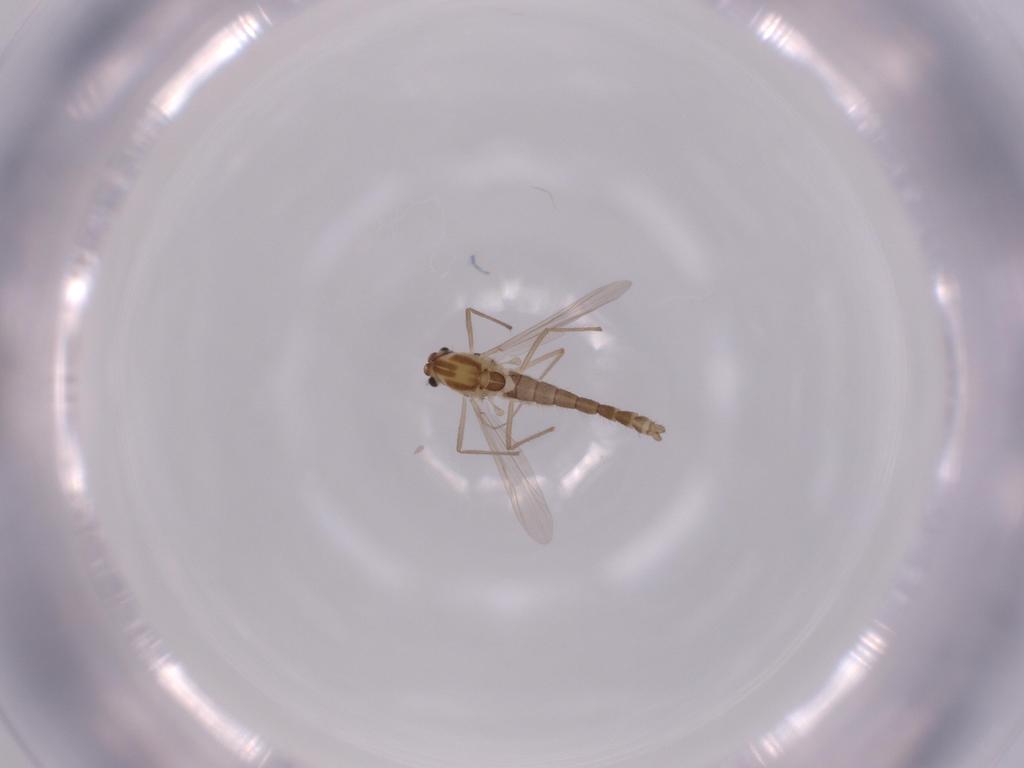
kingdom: Animalia
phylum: Arthropoda
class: Insecta
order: Diptera
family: Chironomidae
